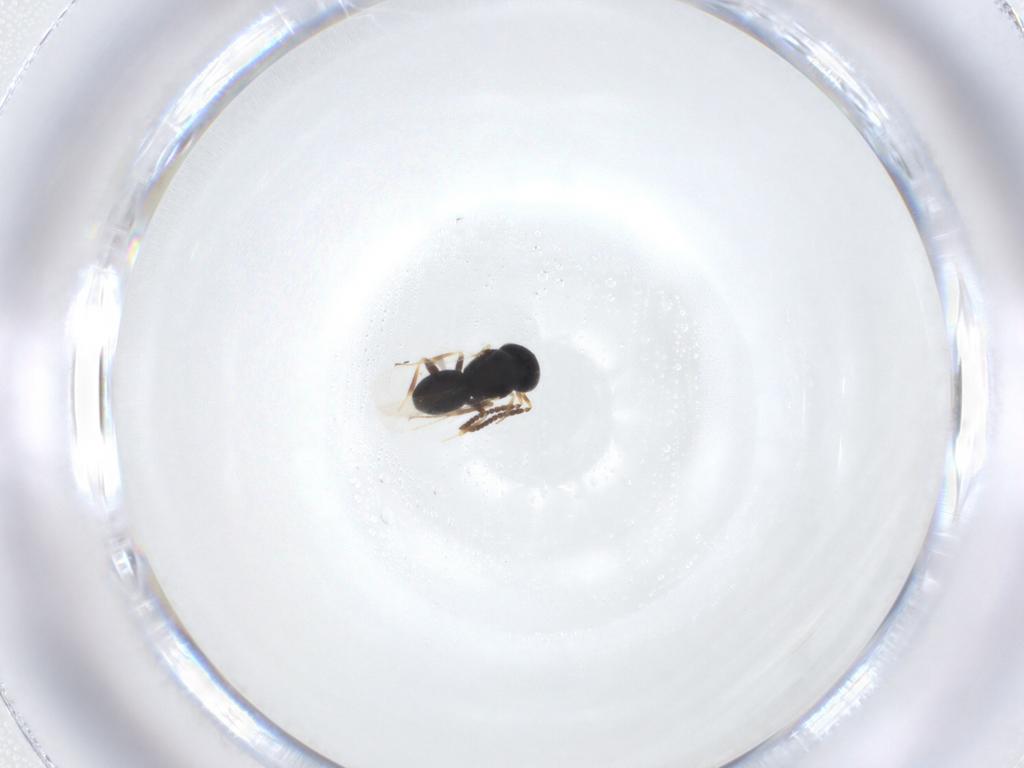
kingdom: Animalia
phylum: Arthropoda
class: Insecta
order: Hymenoptera
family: Scelionidae
